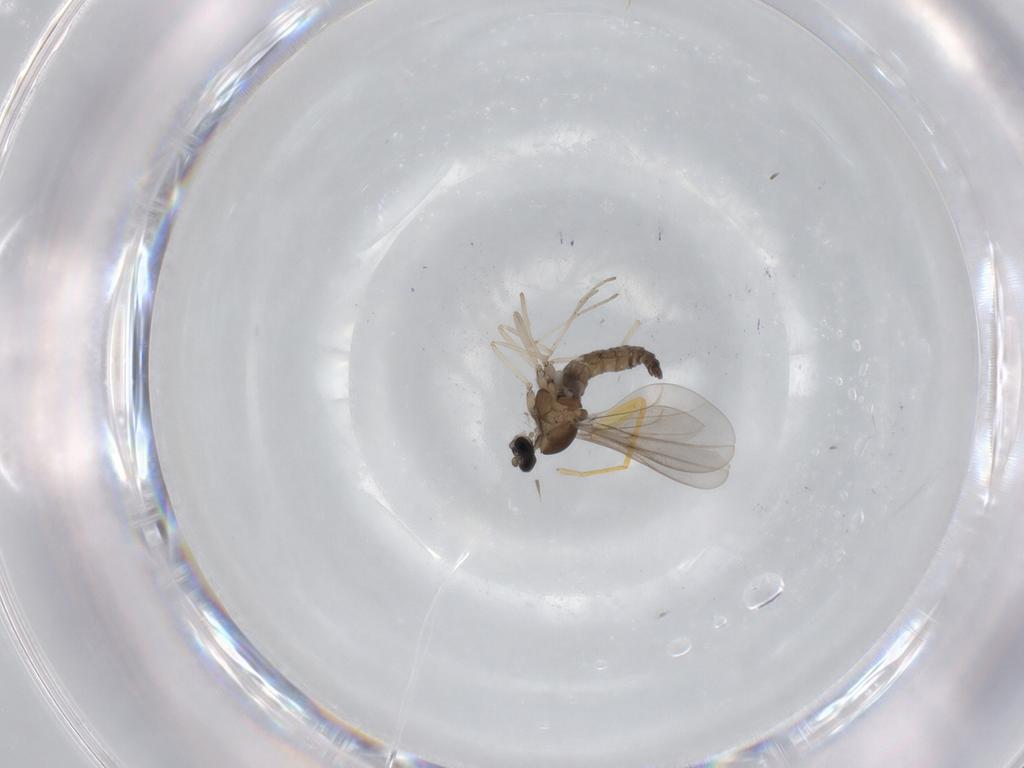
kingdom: Animalia
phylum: Arthropoda
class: Insecta
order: Diptera
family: Cecidomyiidae
